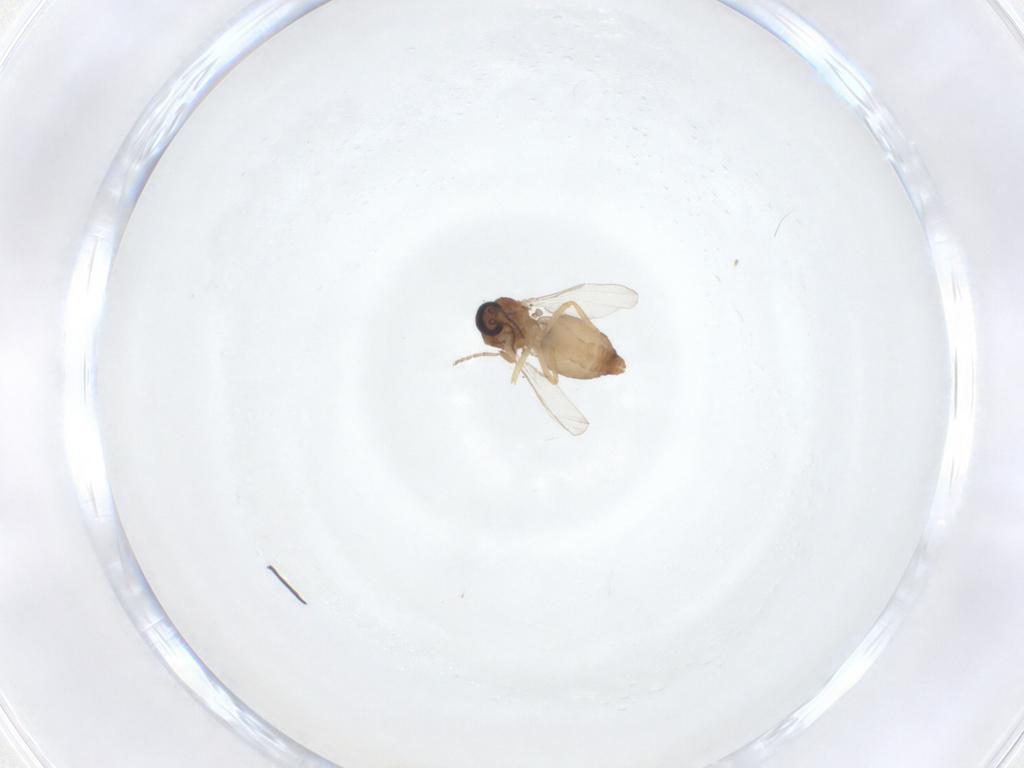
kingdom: Animalia
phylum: Arthropoda
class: Insecta
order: Diptera
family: Ceratopogonidae
